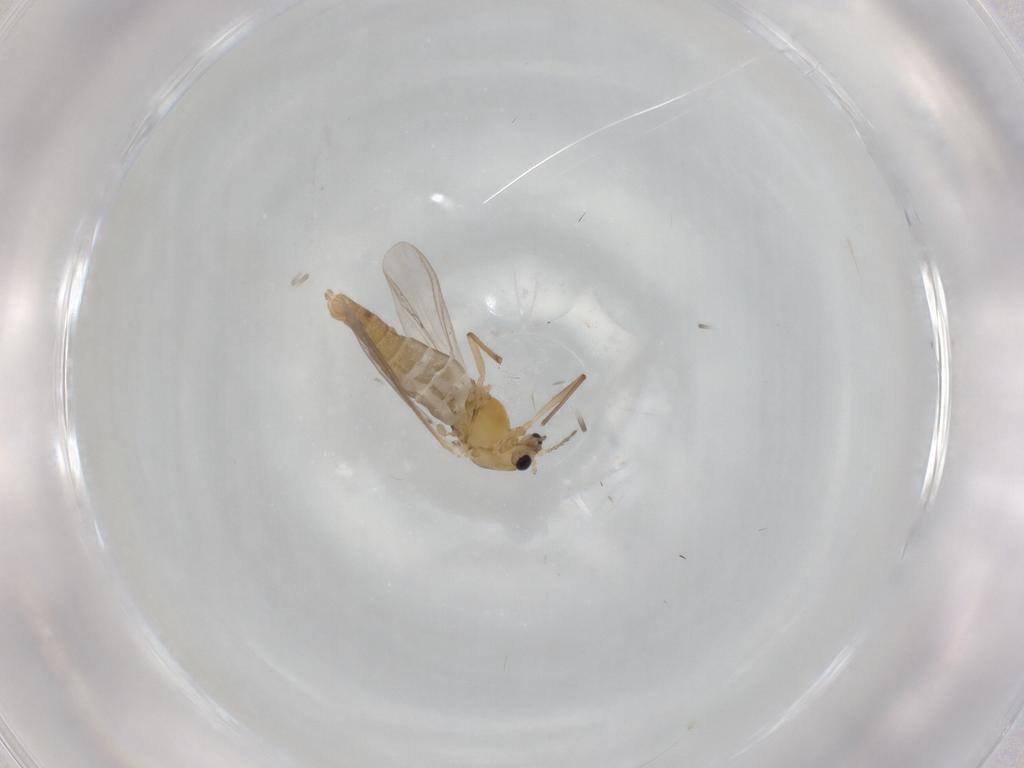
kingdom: Animalia
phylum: Arthropoda
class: Insecta
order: Diptera
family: Chironomidae
